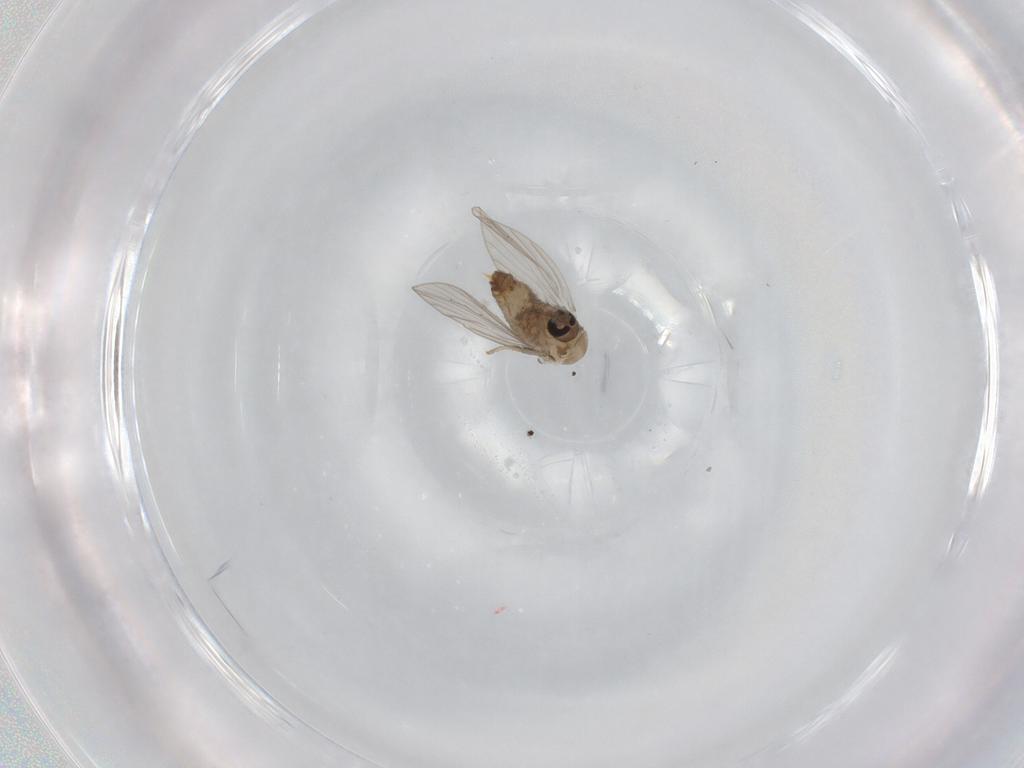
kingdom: Animalia
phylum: Arthropoda
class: Insecta
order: Diptera
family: Psychodidae
